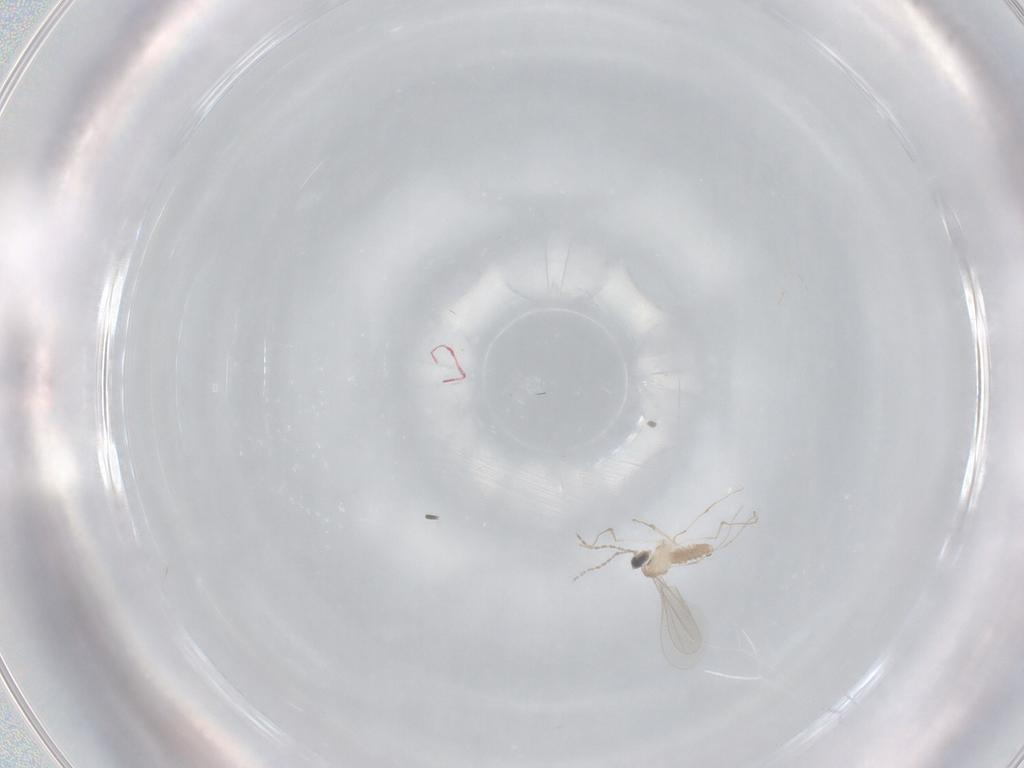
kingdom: Animalia
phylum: Arthropoda
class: Insecta
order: Diptera
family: Cecidomyiidae
